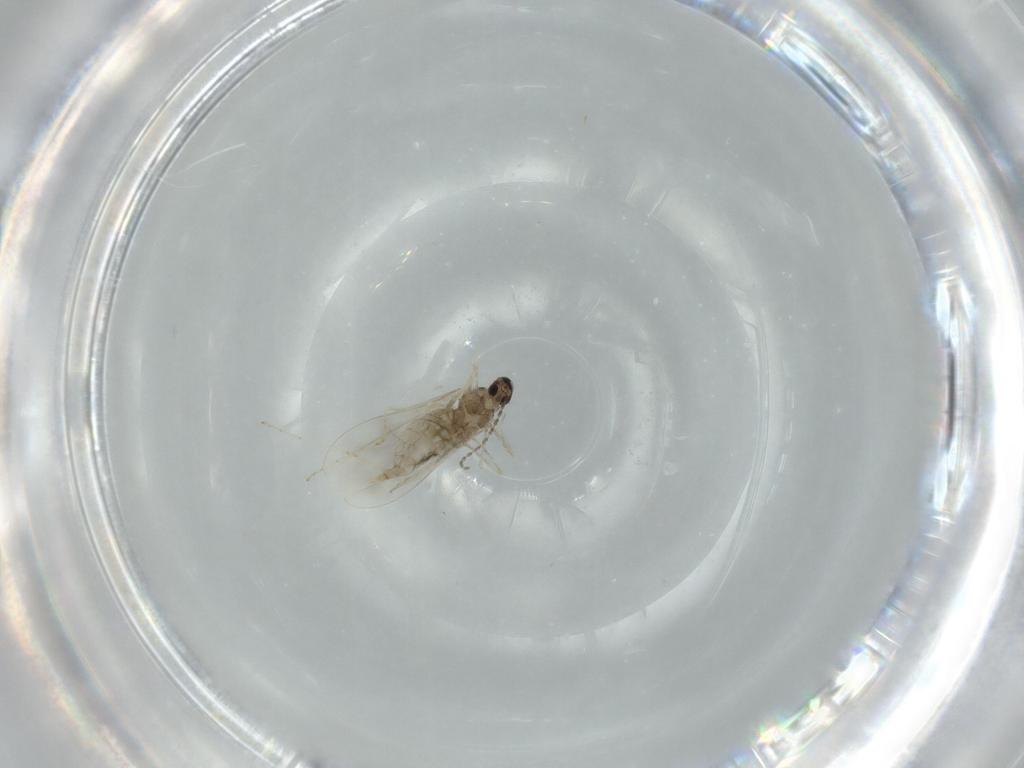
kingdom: Animalia
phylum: Arthropoda
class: Insecta
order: Diptera
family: Cecidomyiidae
